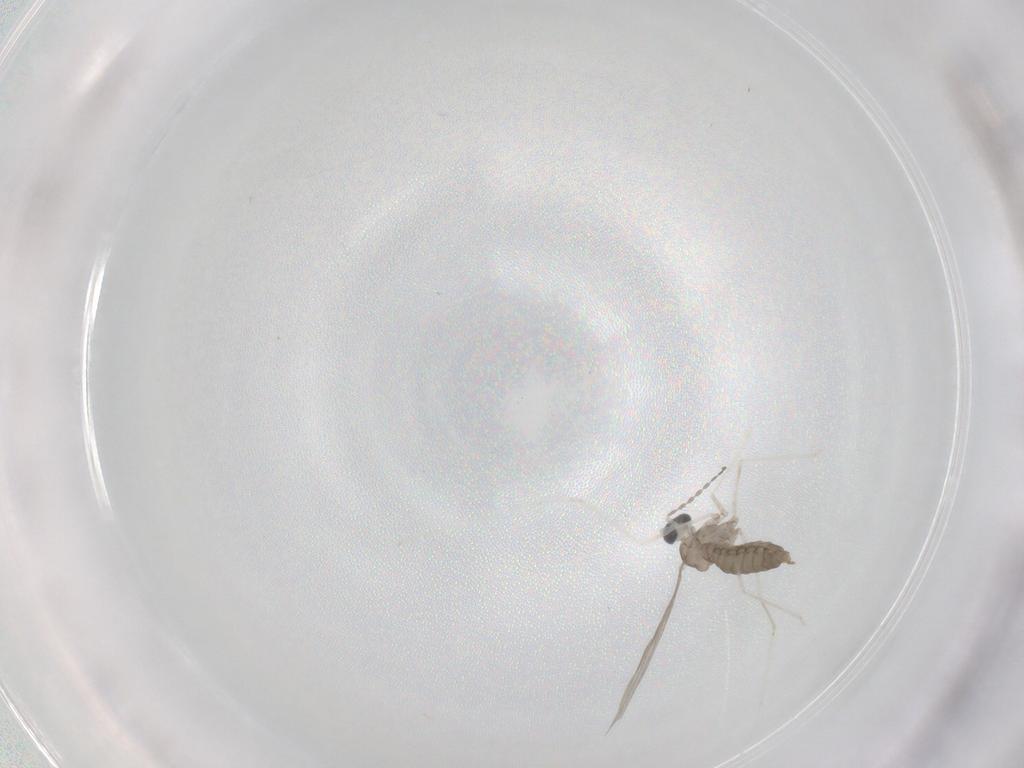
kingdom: Animalia
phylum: Arthropoda
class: Insecta
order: Diptera
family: Cecidomyiidae
